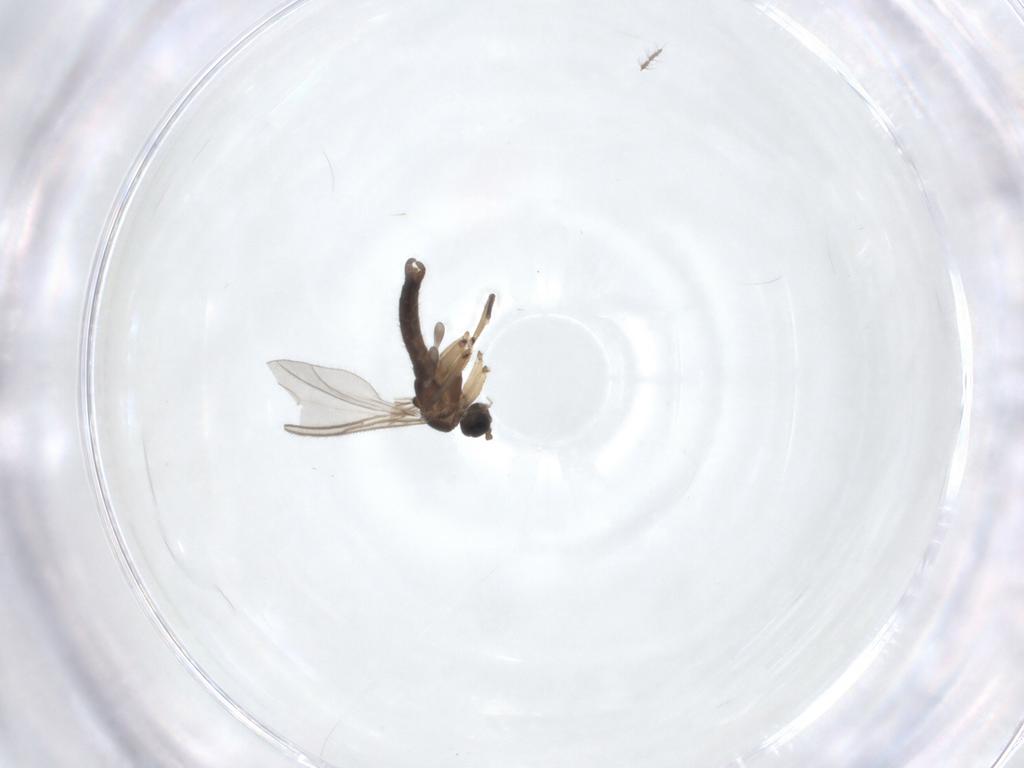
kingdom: Animalia
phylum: Arthropoda
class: Insecta
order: Diptera
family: Sciaridae
